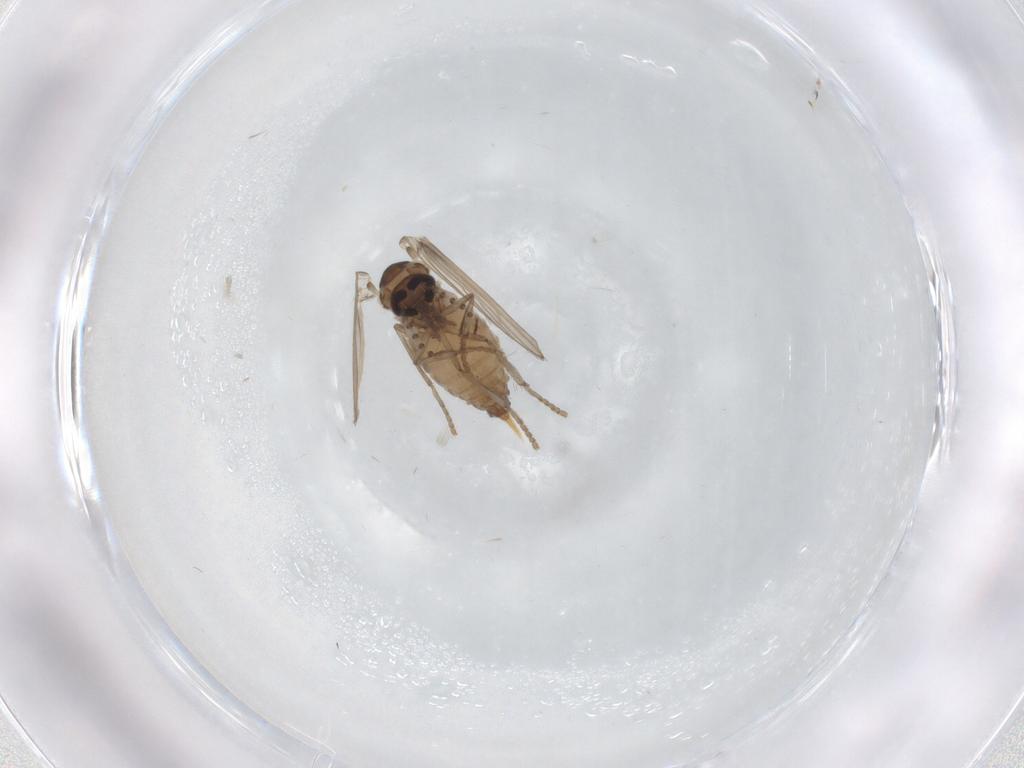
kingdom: Animalia
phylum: Arthropoda
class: Insecta
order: Diptera
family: Psychodidae
